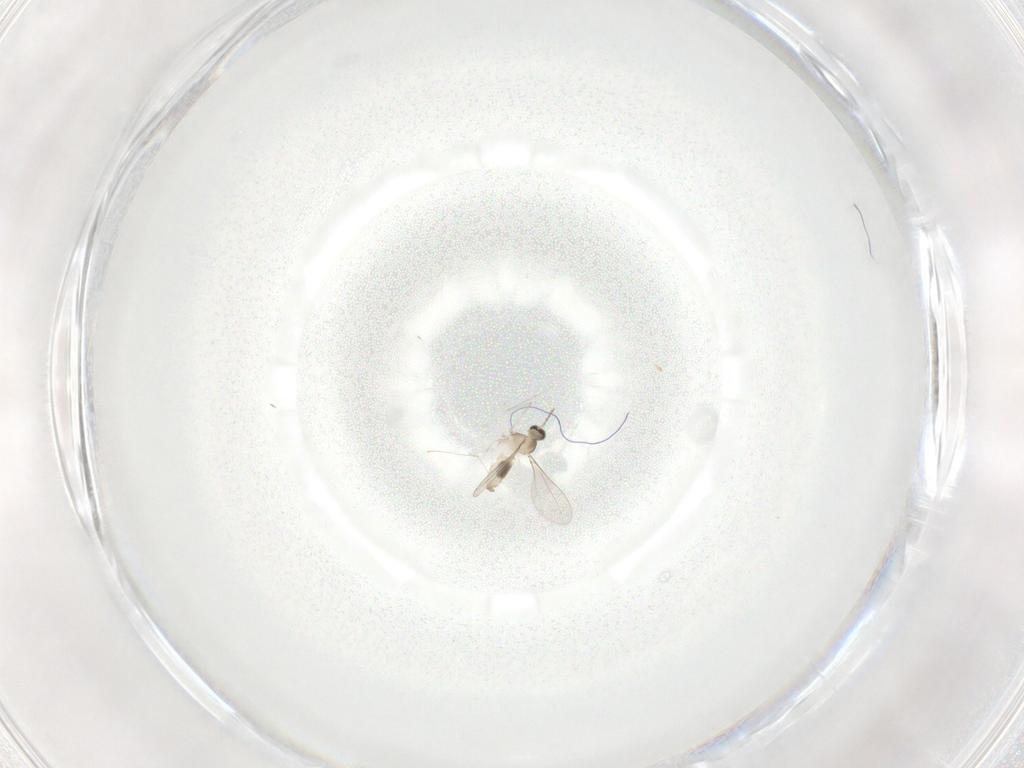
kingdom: Animalia
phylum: Arthropoda
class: Insecta
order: Diptera
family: Cecidomyiidae
